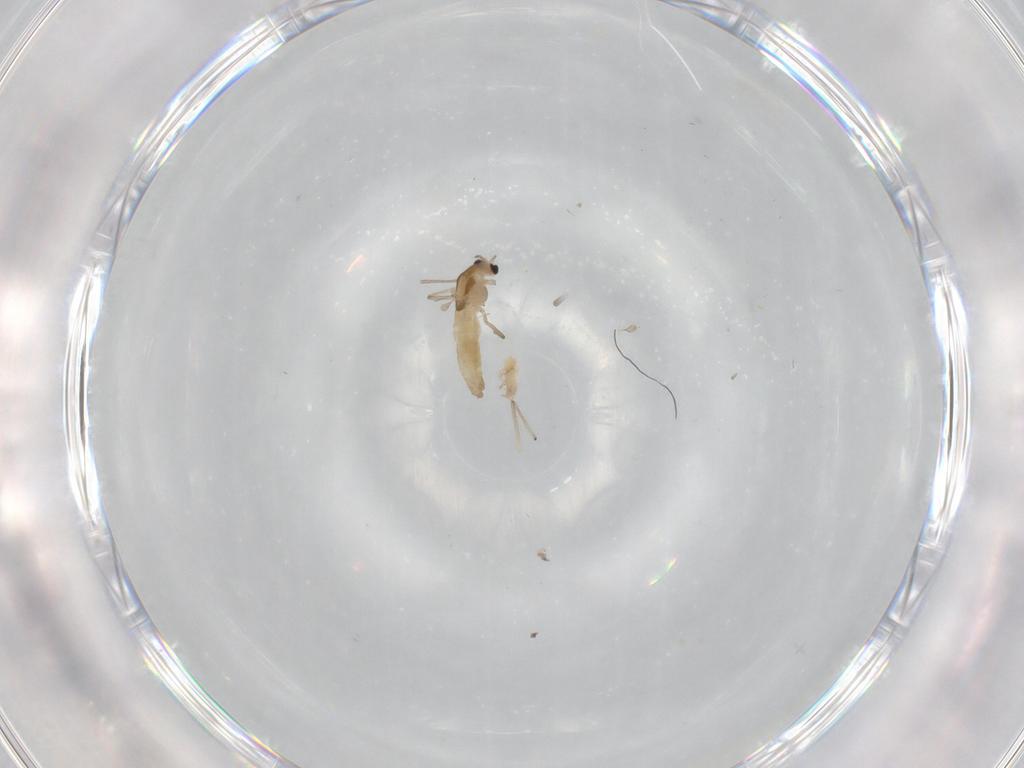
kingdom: Animalia
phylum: Arthropoda
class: Insecta
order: Diptera
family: Chironomidae
